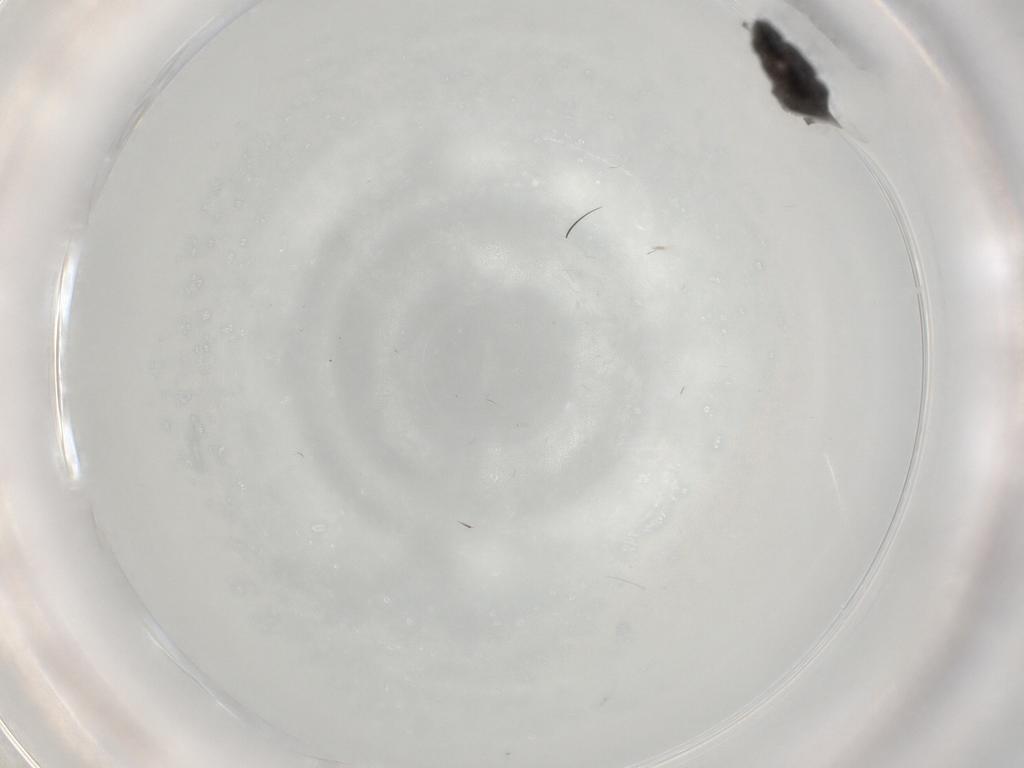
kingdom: Animalia
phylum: Arthropoda
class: Insecta
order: Diptera
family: Phoridae
